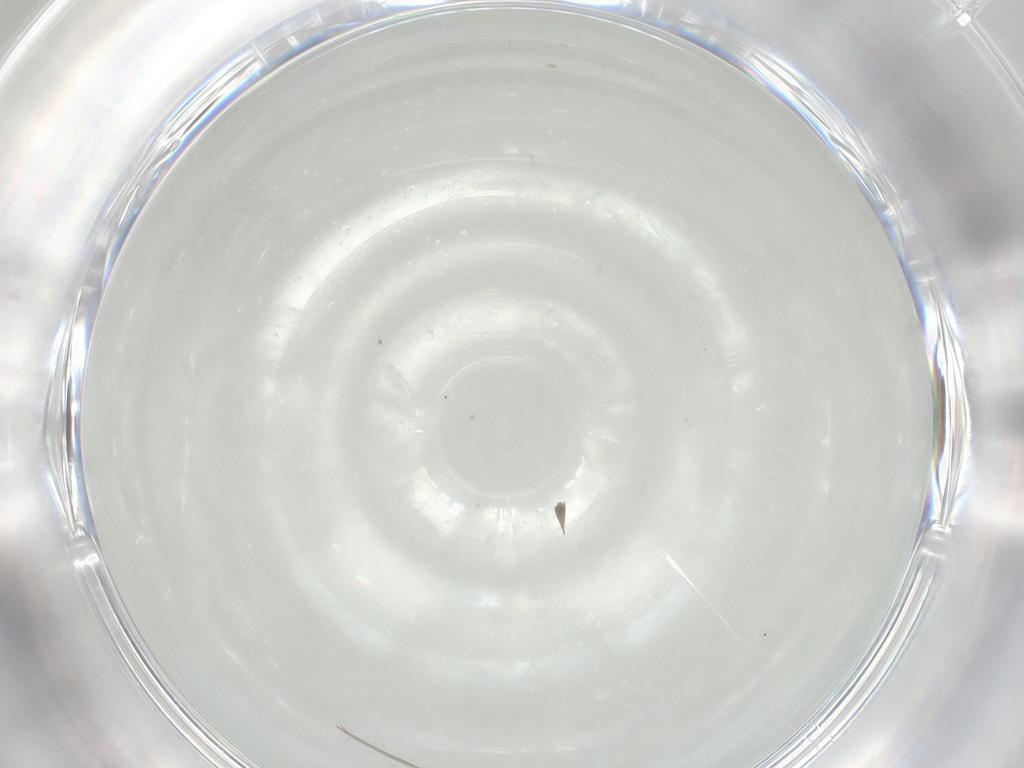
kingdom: Animalia
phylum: Arthropoda
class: Insecta
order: Diptera
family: Cecidomyiidae
